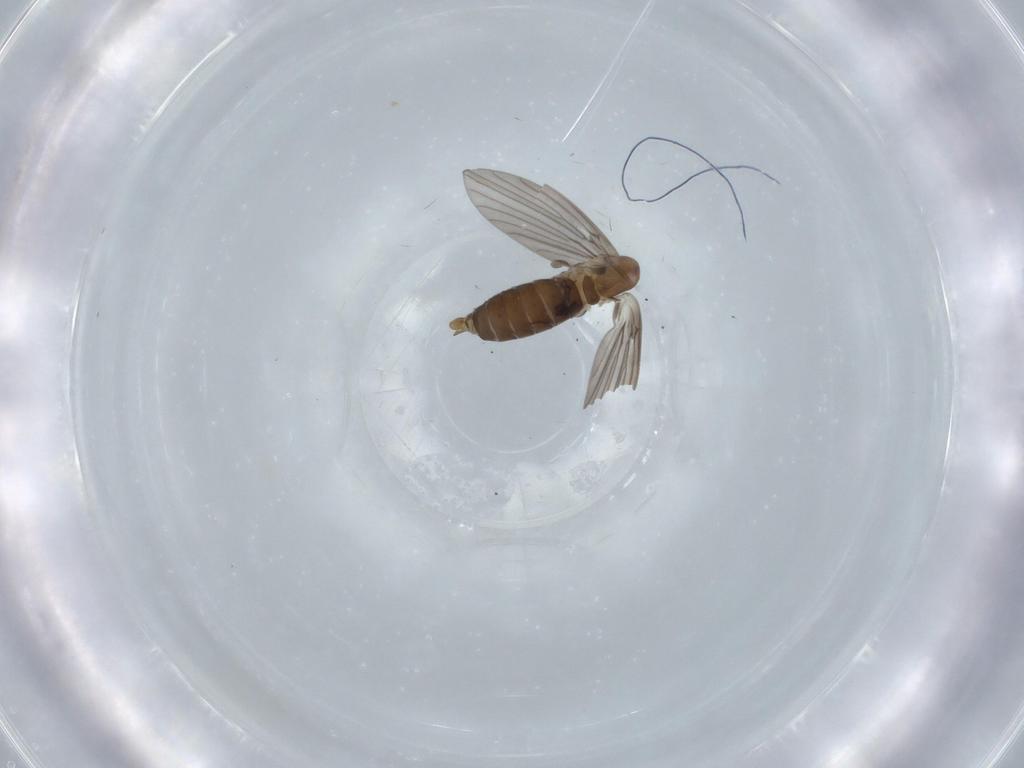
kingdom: Animalia
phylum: Arthropoda
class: Insecta
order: Diptera
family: Psychodidae
